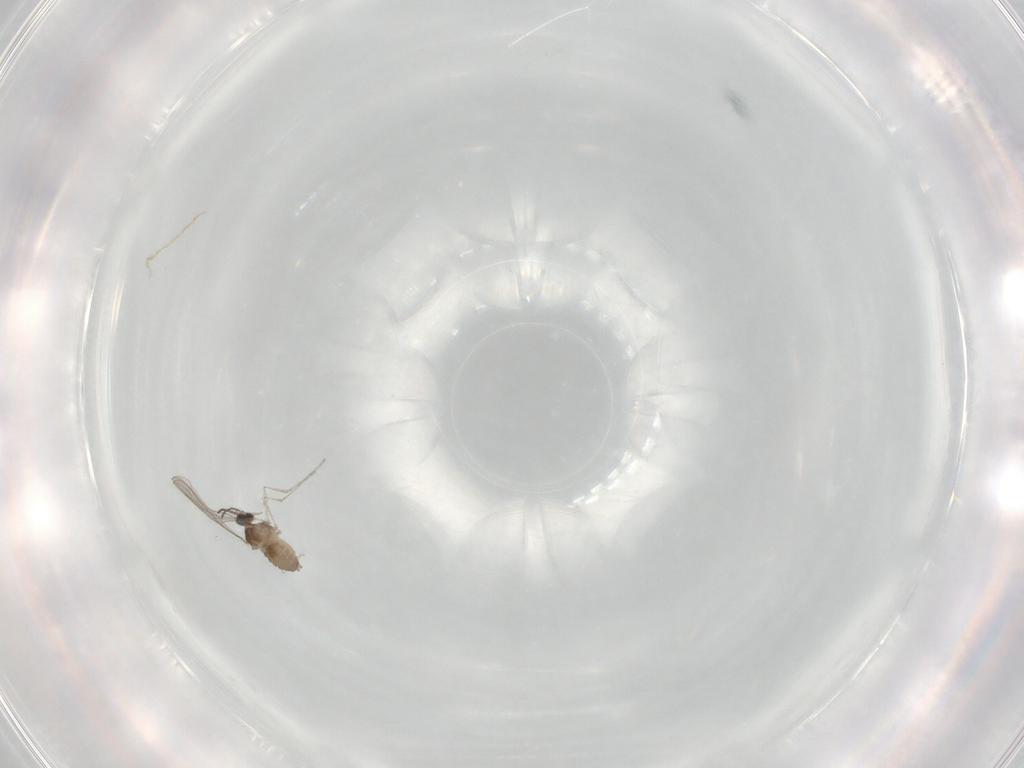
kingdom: Animalia
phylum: Arthropoda
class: Insecta
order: Diptera
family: Cecidomyiidae
